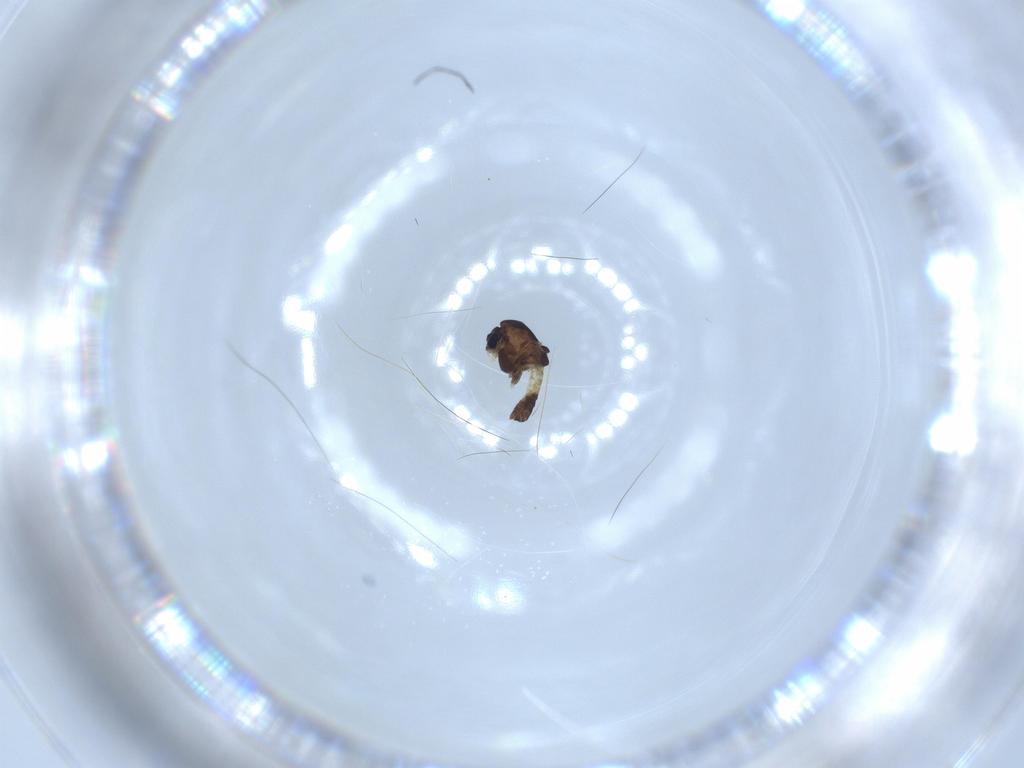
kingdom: Animalia
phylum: Arthropoda
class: Insecta
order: Diptera
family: Chironomidae
